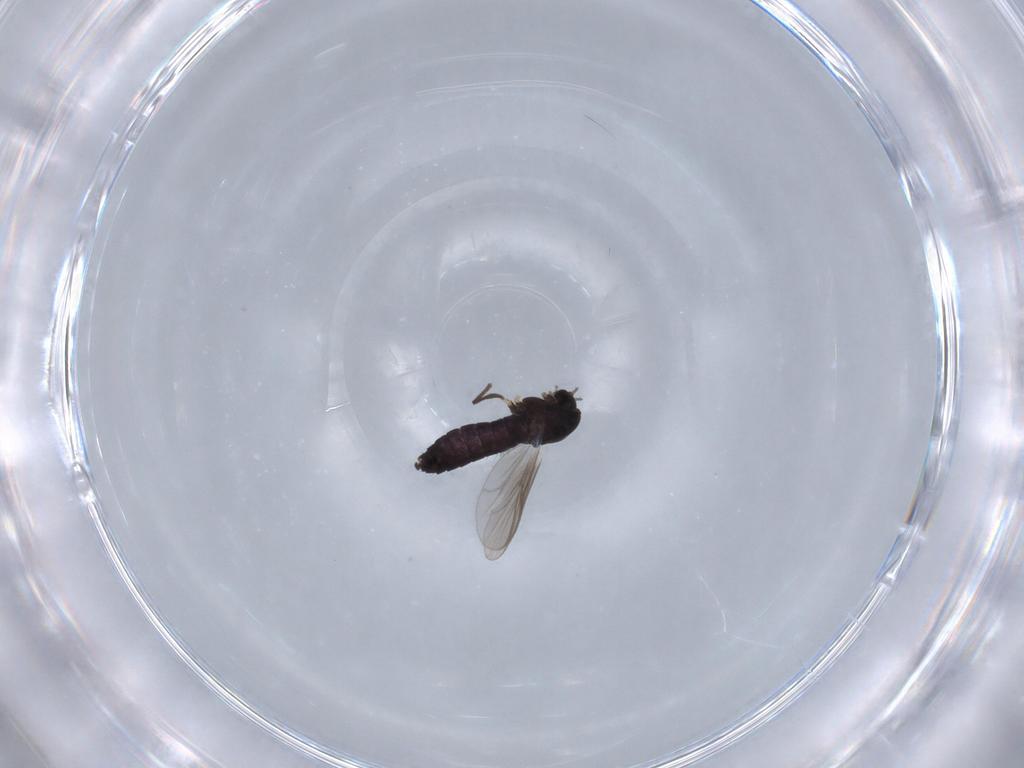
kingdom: Animalia
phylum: Arthropoda
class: Insecta
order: Diptera
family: Chironomidae
